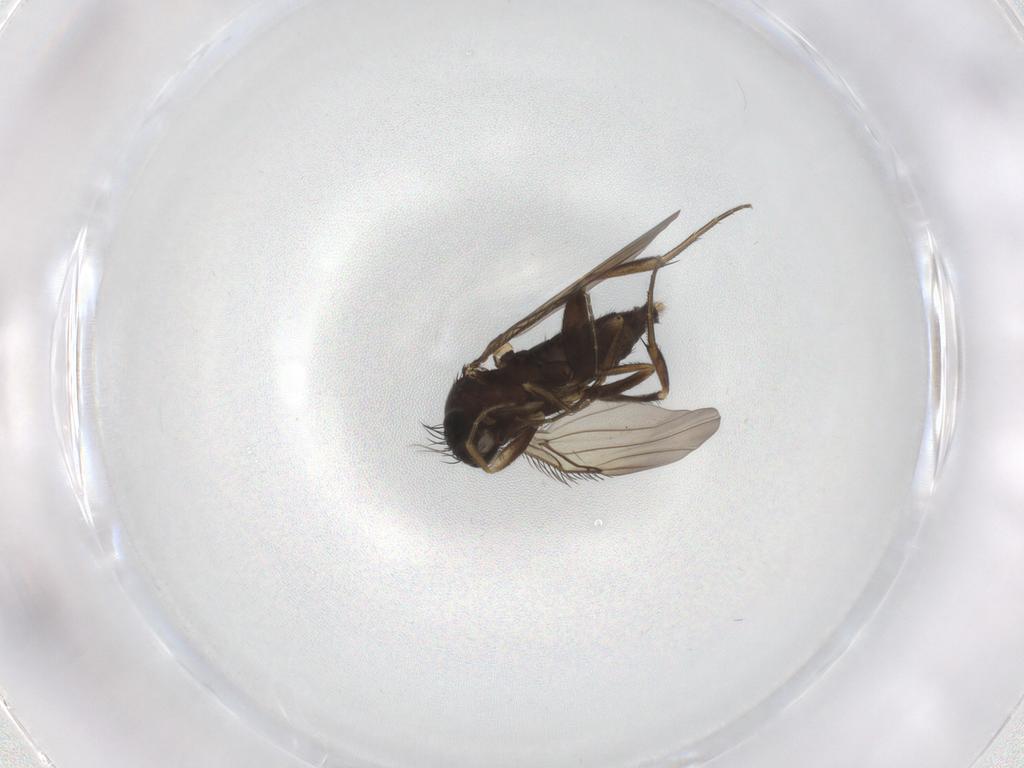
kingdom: Animalia
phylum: Arthropoda
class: Insecta
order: Diptera
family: Phoridae
